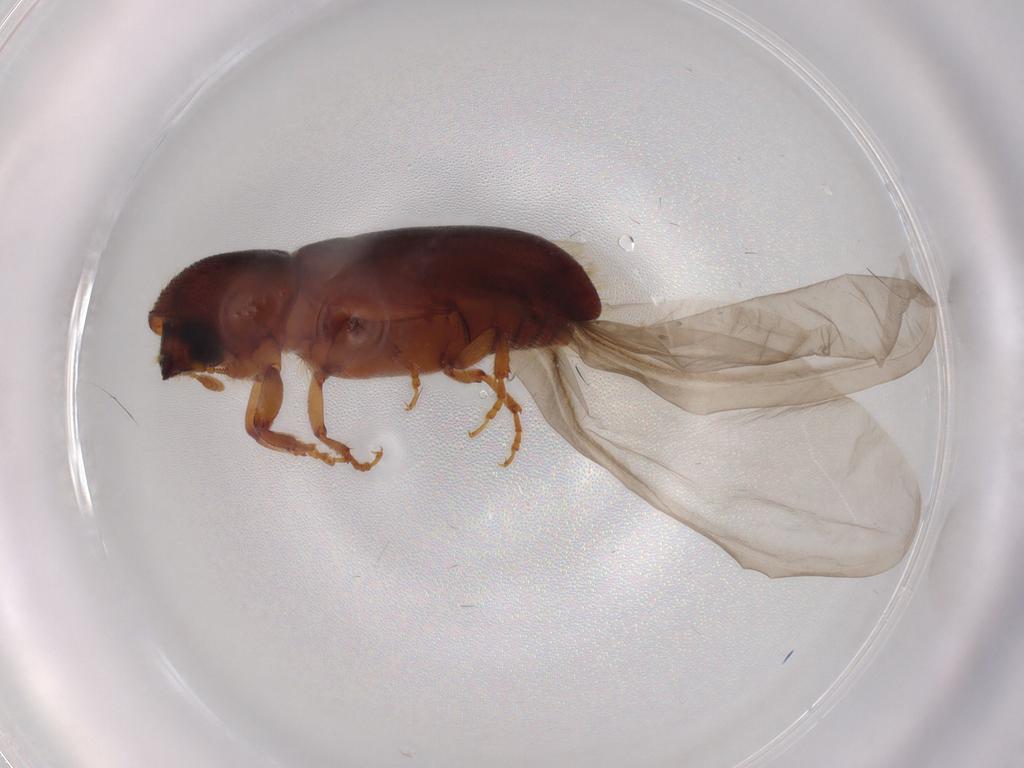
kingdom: Animalia
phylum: Arthropoda
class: Insecta
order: Coleoptera
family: Curculionidae
